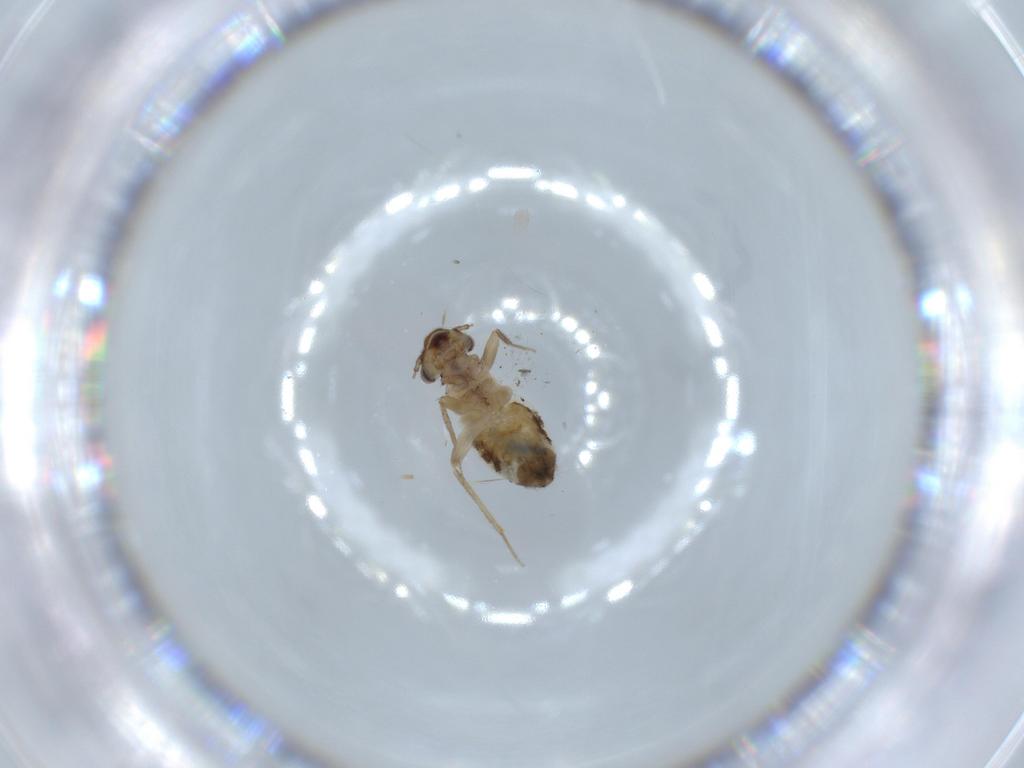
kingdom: Animalia
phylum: Arthropoda
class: Insecta
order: Psocodea
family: Lepidopsocidae
